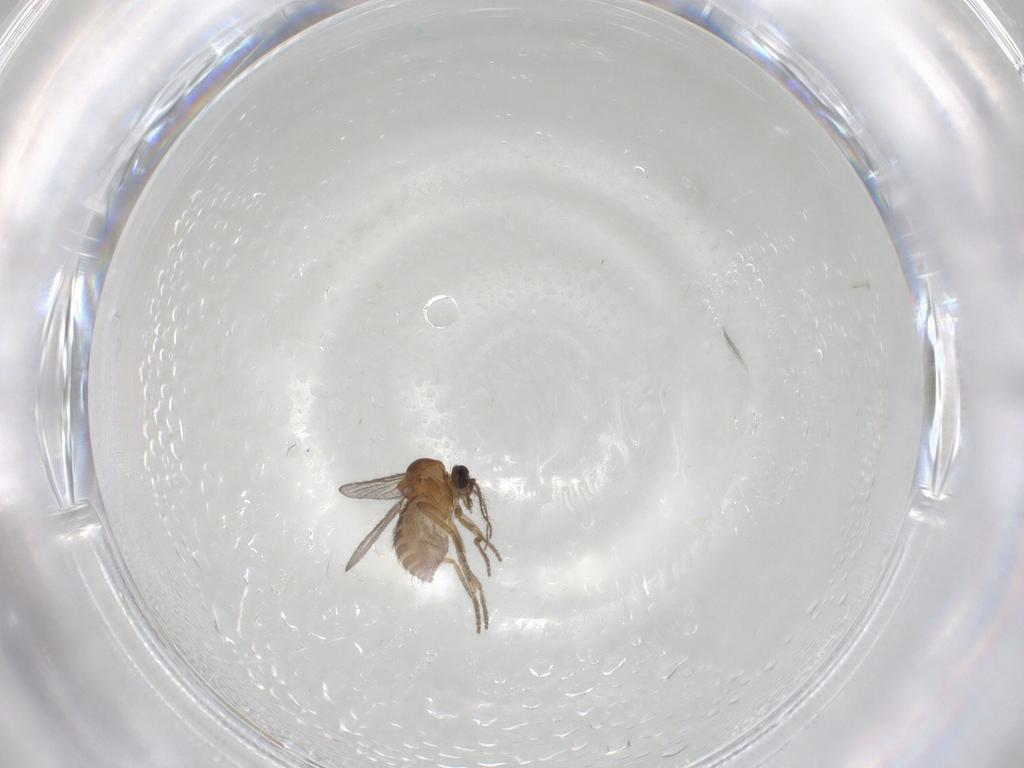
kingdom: Animalia
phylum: Arthropoda
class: Insecta
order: Diptera
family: Ceratopogonidae
